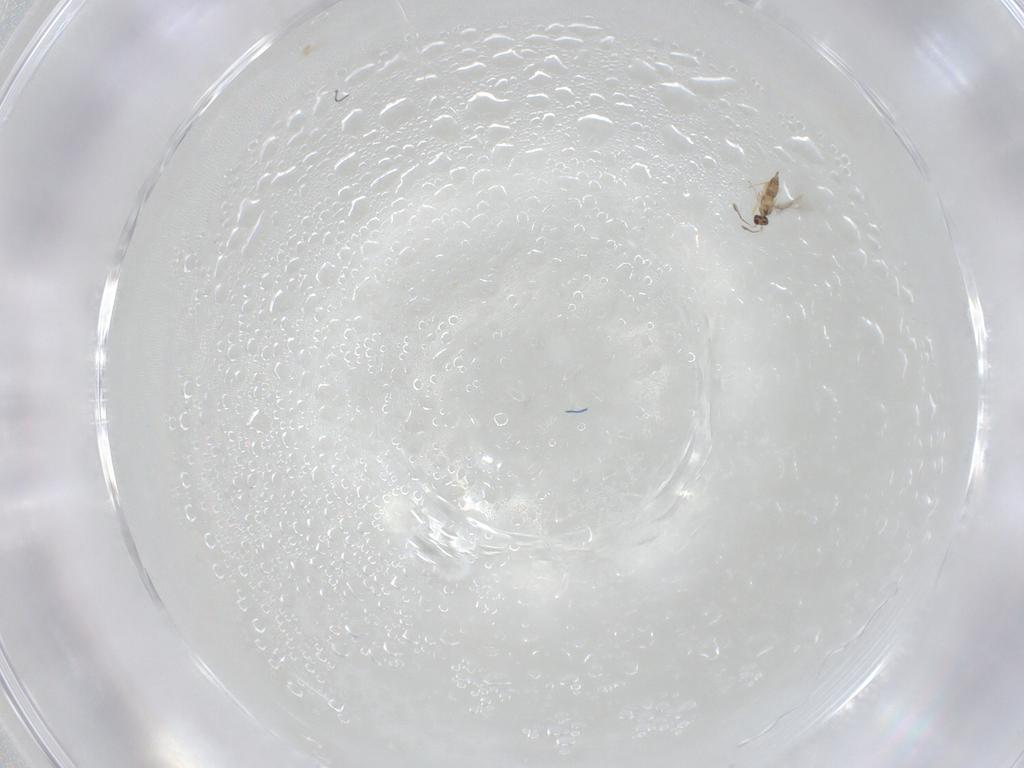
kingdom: Animalia
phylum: Arthropoda
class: Insecta
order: Hymenoptera
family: Mymaridae
